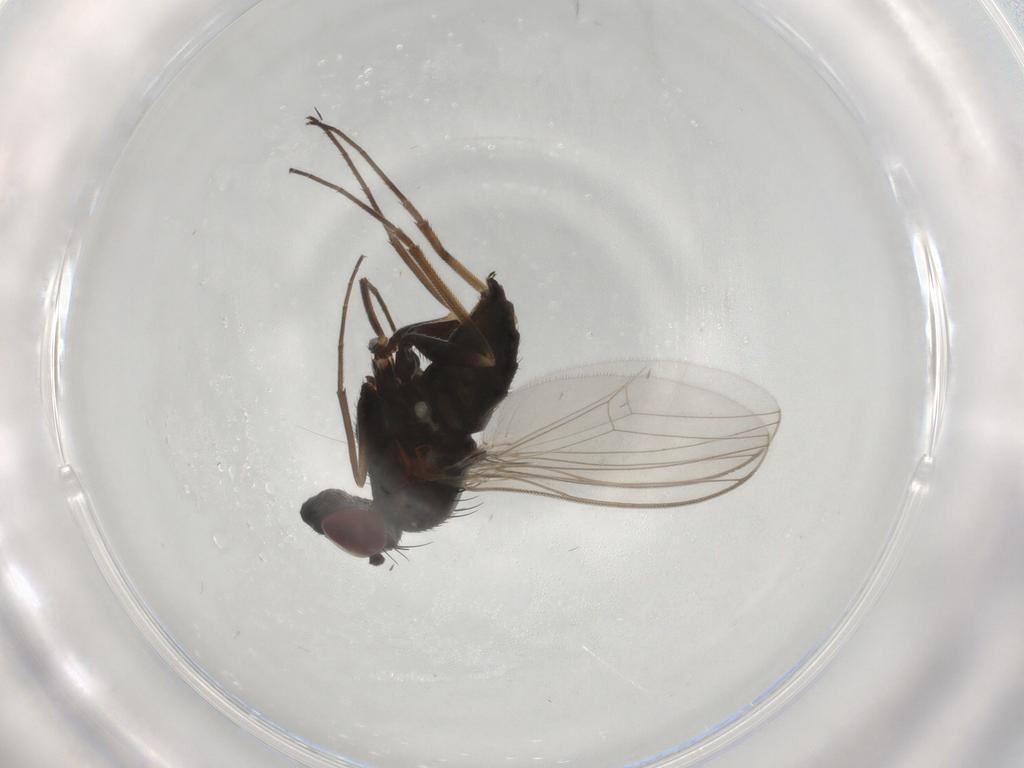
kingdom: Animalia
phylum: Arthropoda
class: Insecta
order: Diptera
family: Dolichopodidae
